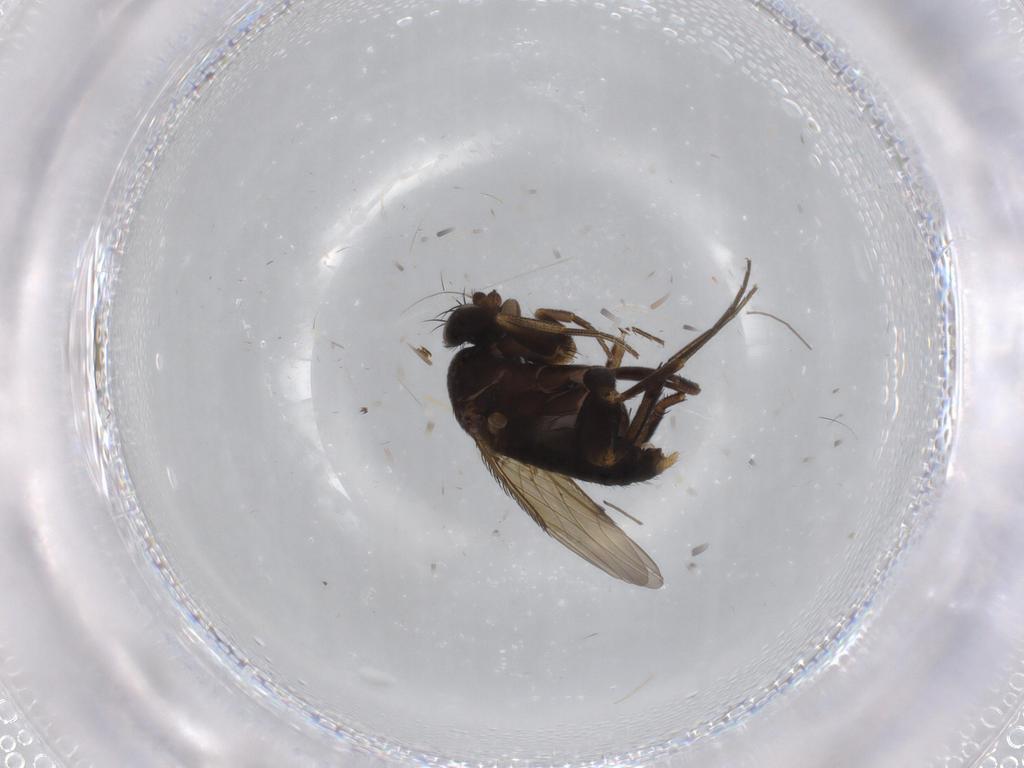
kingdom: Animalia
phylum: Arthropoda
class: Insecta
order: Diptera
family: Phoridae
